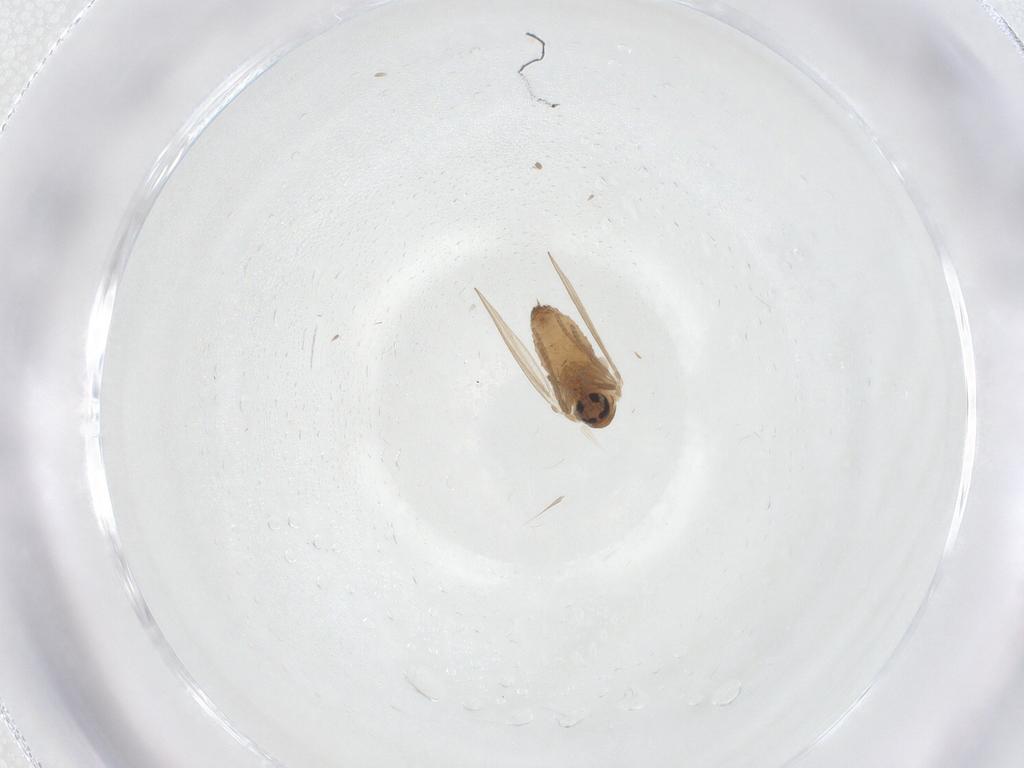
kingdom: Animalia
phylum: Arthropoda
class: Insecta
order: Diptera
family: Psychodidae
